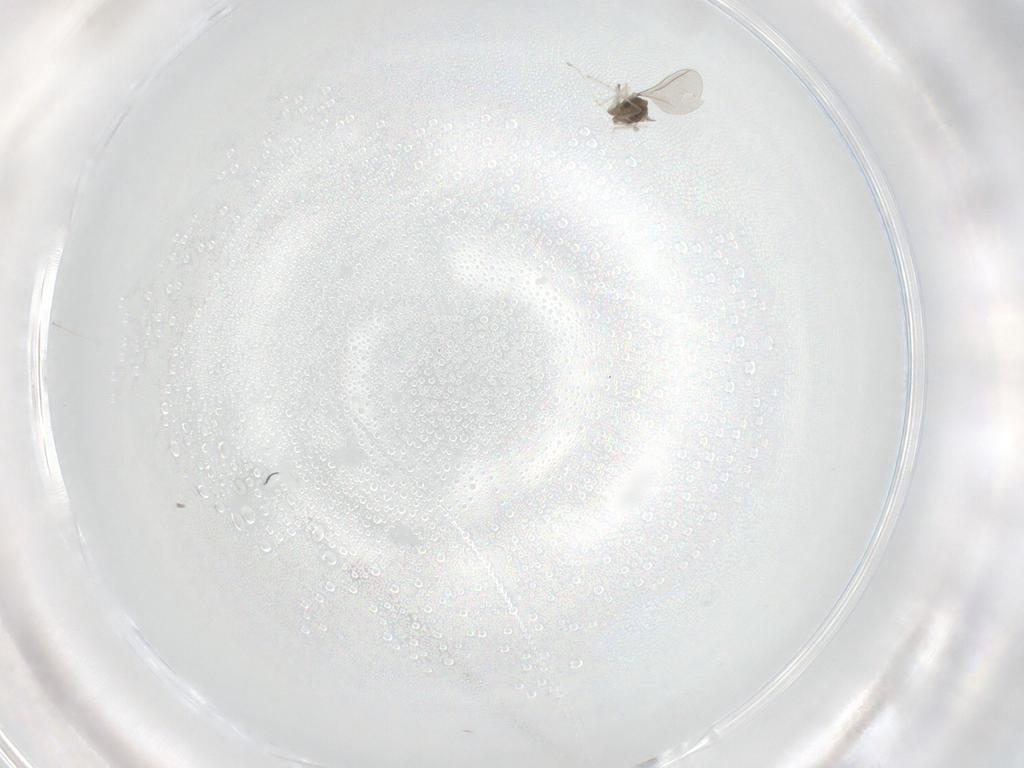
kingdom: Animalia
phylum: Arthropoda
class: Insecta
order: Diptera
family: Cecidomyiidae
